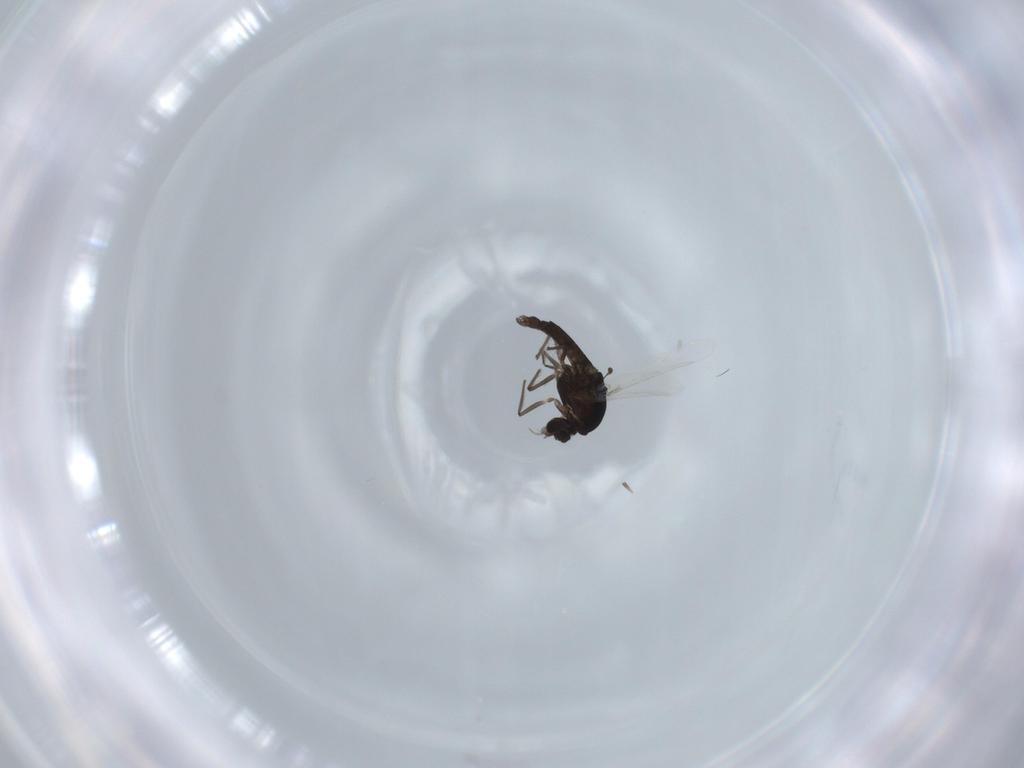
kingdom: Animalia
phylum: Arthropoda
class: Insecta
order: Diptera
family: Chironomidae
